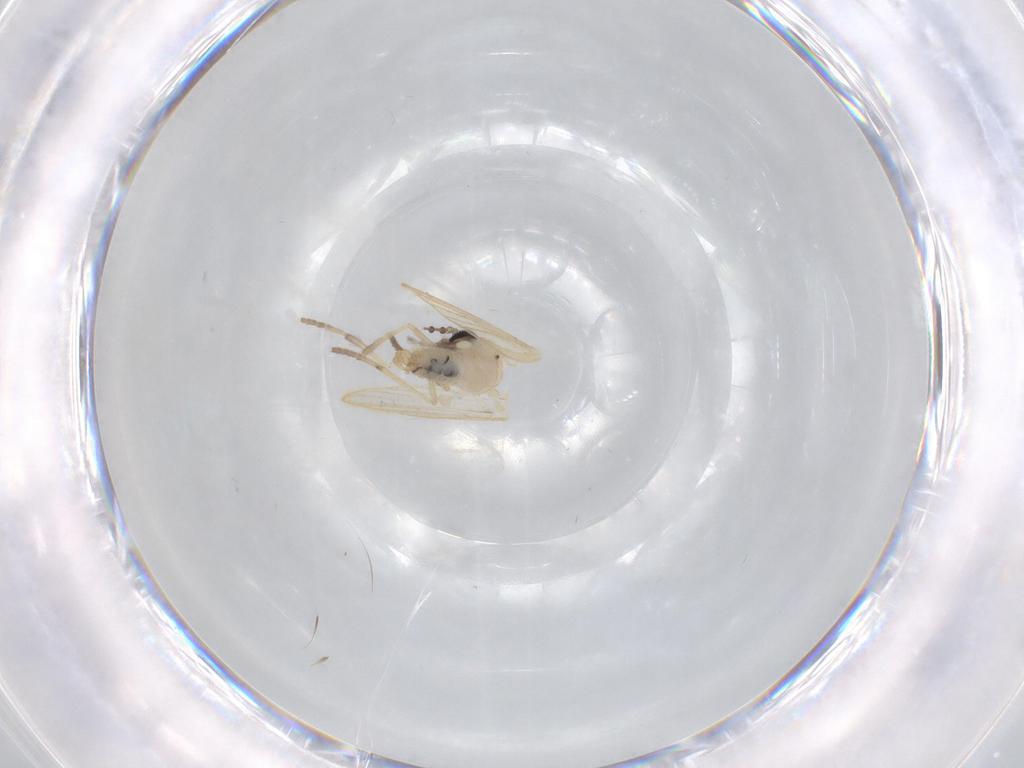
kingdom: Animalia
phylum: Arthropoda
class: Insecta
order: Diptera
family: Cecidomyiidae
